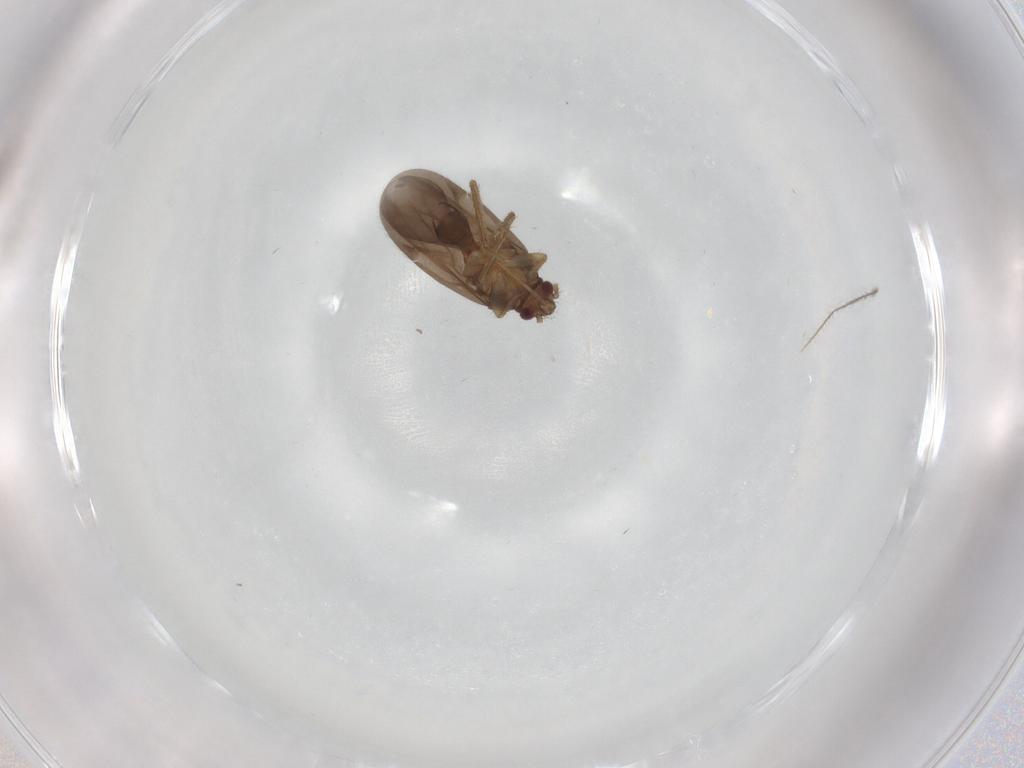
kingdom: Animalia
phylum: Arthropoda
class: Insecta
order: Hemiptera
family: Ceratocombidae
